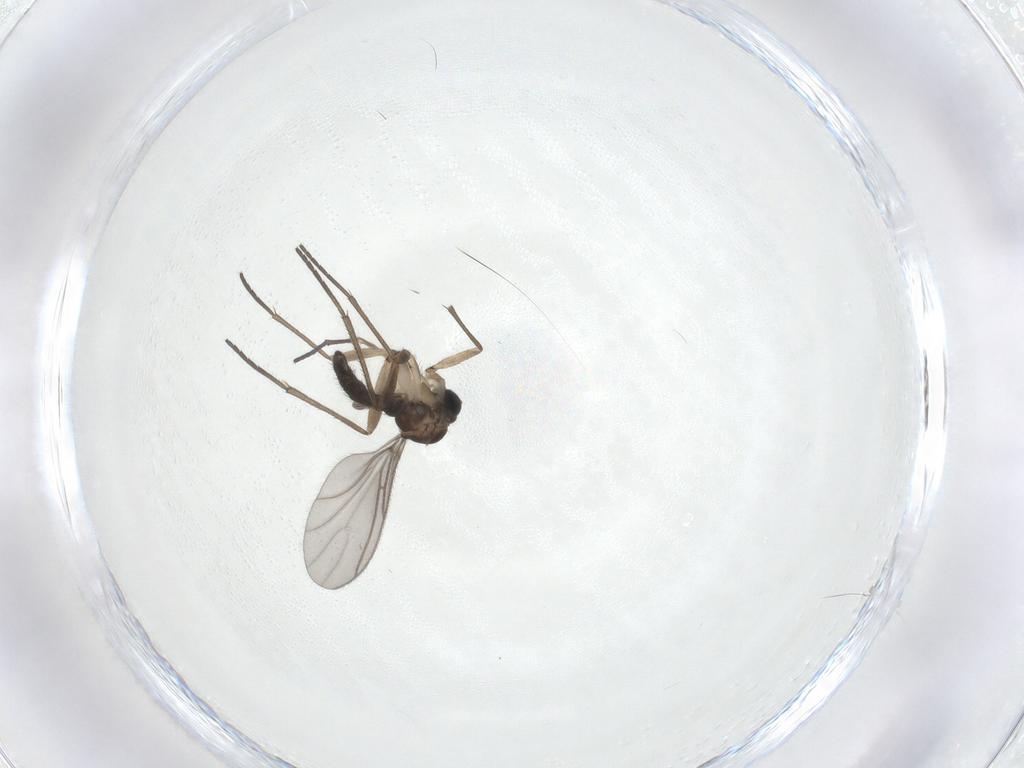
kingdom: Animalia
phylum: Arthropoda
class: Insecta
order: Diptera
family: Sciaridae
